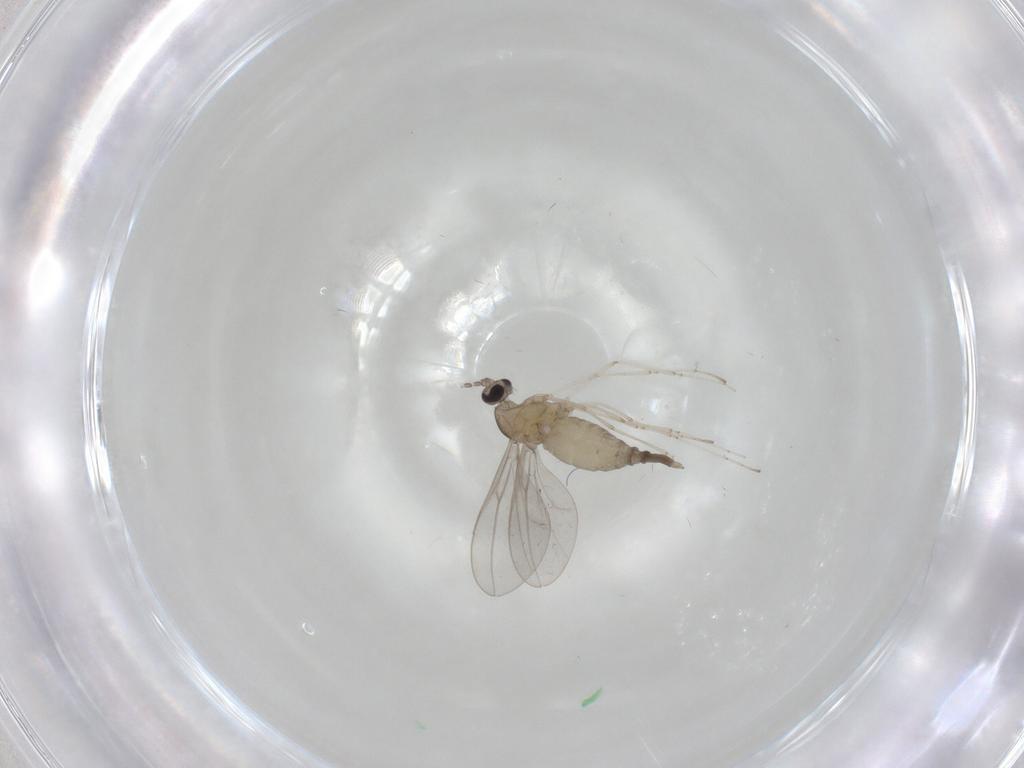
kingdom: Animalia
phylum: Arthropoda
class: Insecta
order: Diptera
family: Cecidomyiidae
